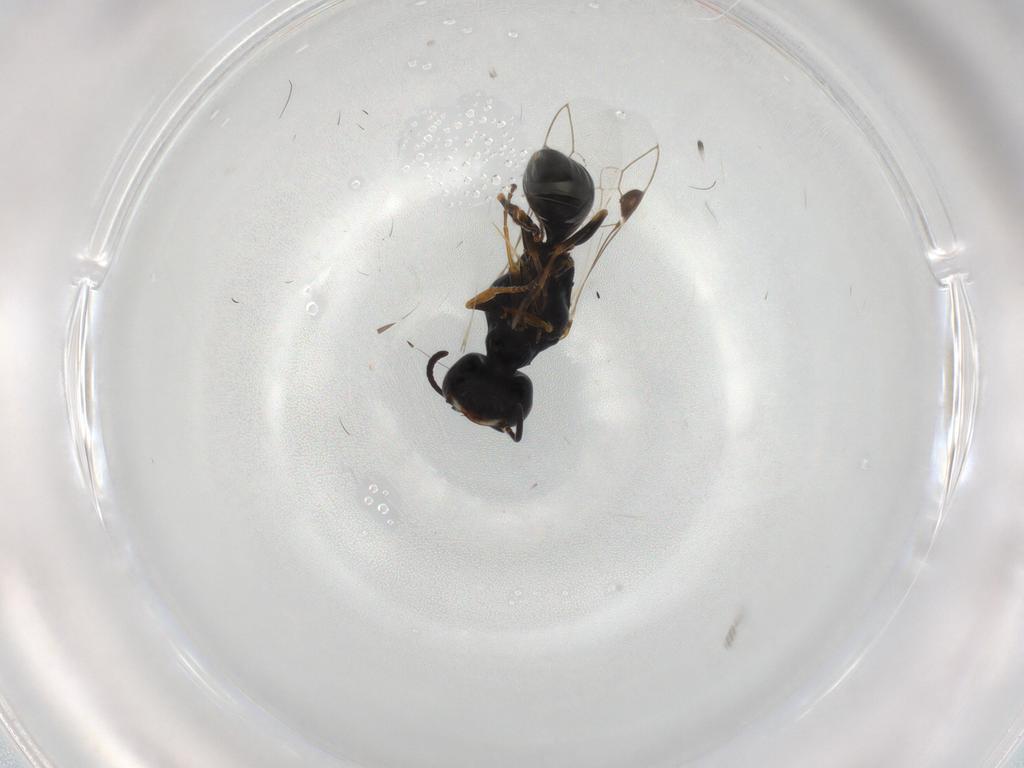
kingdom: Animalia
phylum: Arthropoda
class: Insecta
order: Hymenoptera
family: Crabronidae
